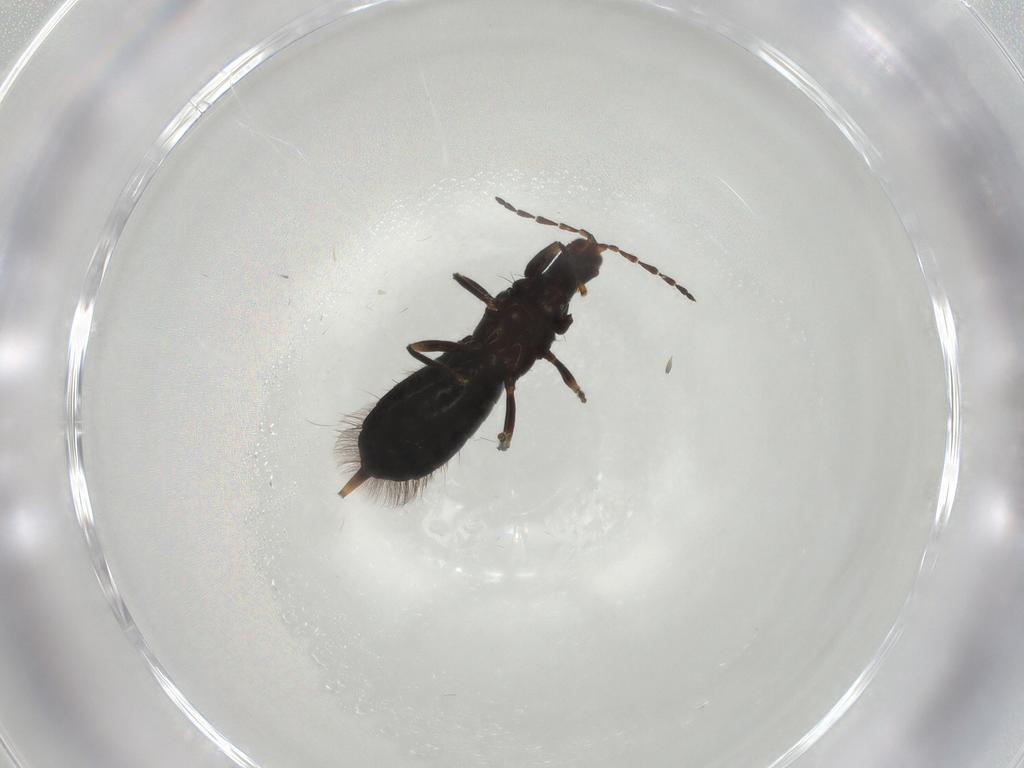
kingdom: Animalia
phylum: Arthropoda
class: Insecta
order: Thysanoptera
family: Phlaeothripidae
